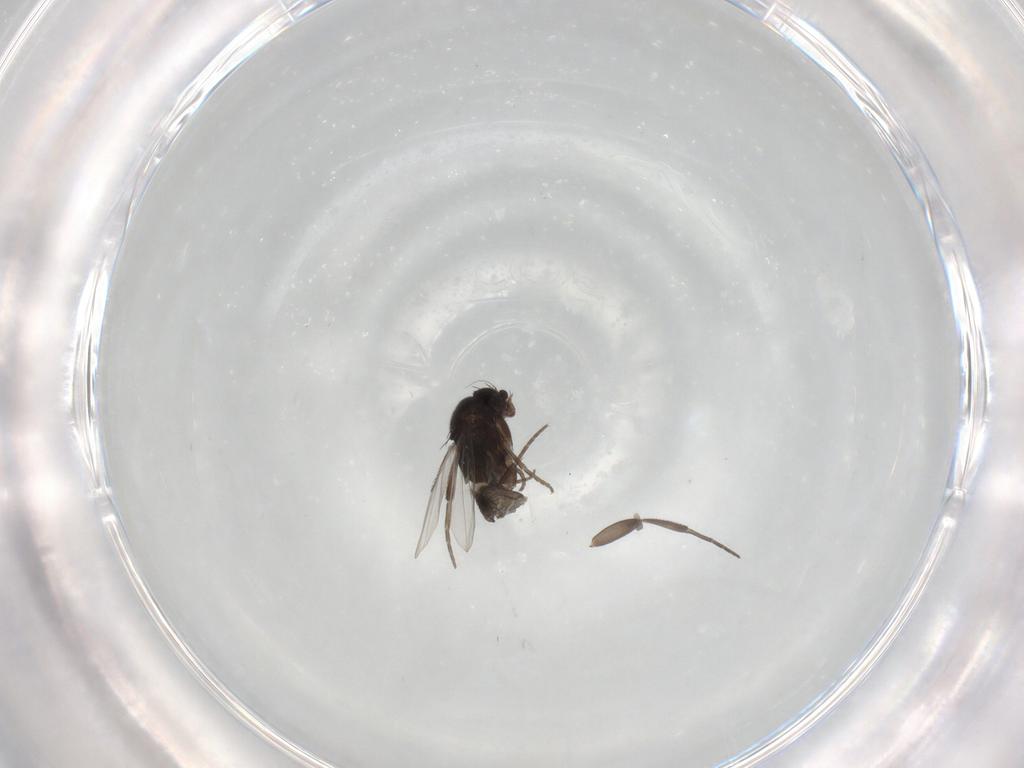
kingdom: Animalia
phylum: Arthropoda
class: Insecta
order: Diptera
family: Phoridae
